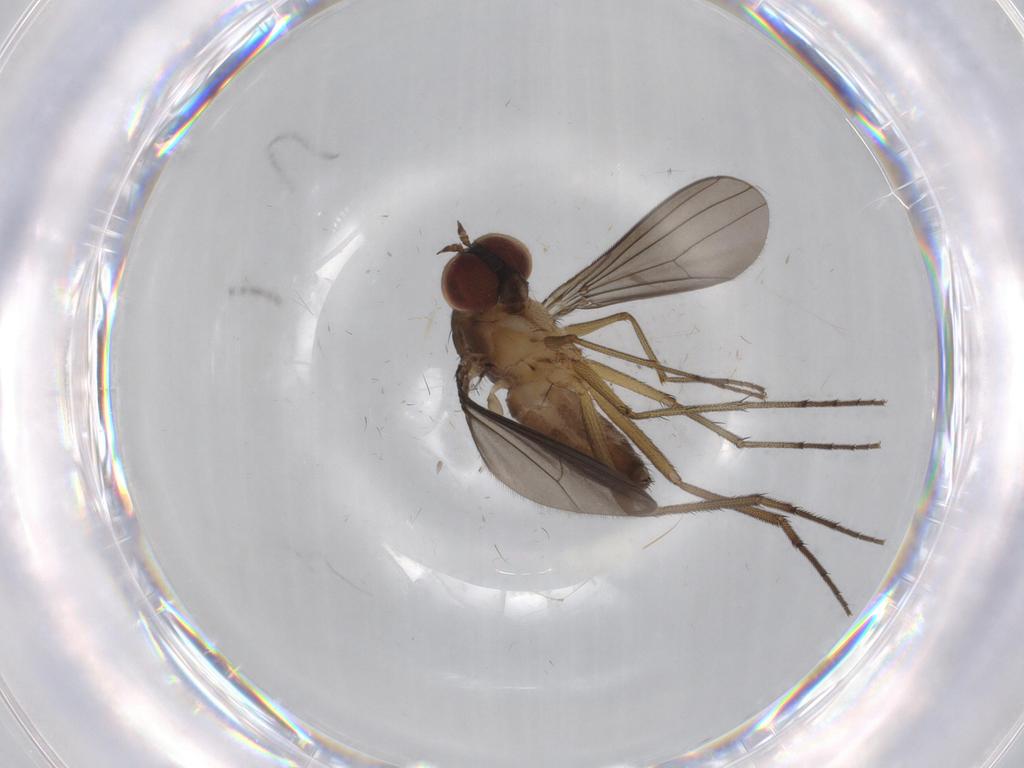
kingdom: Animalia
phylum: Arthropoda
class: Insecta
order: Diptera
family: Dolichopodidae
